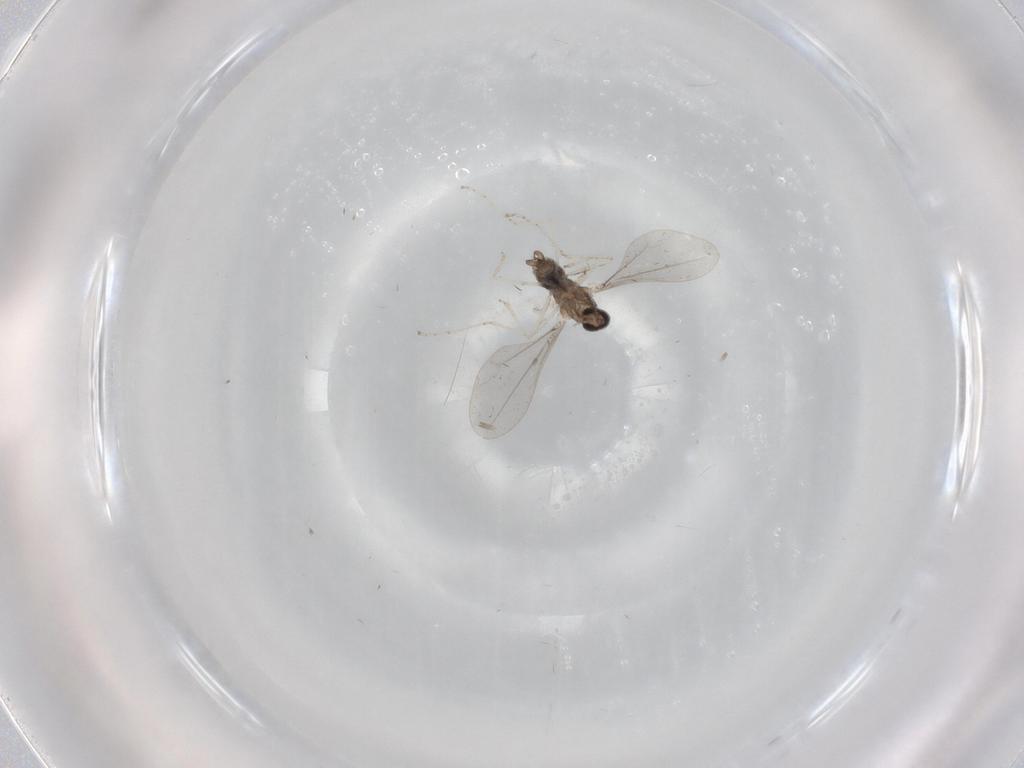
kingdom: Animalia
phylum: Arthropoda
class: Insecta
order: Diptera
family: Cecidomyiidae
